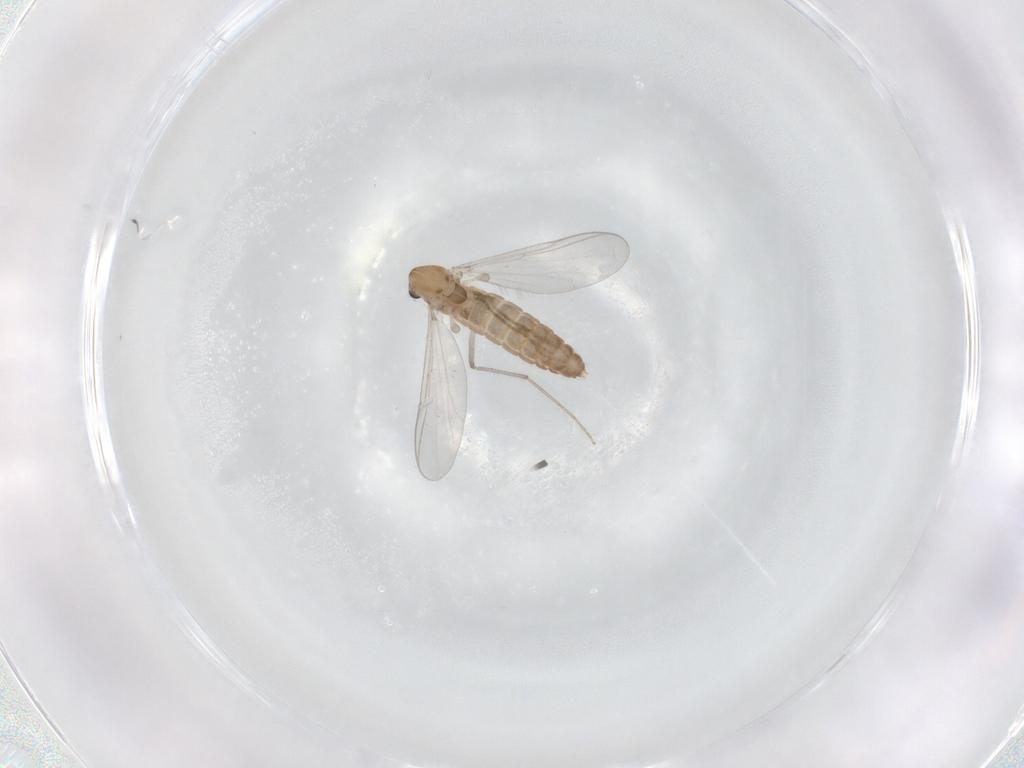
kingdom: Animalia
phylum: Arthropoda
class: Insecta
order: Diptera
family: Chironomidae
